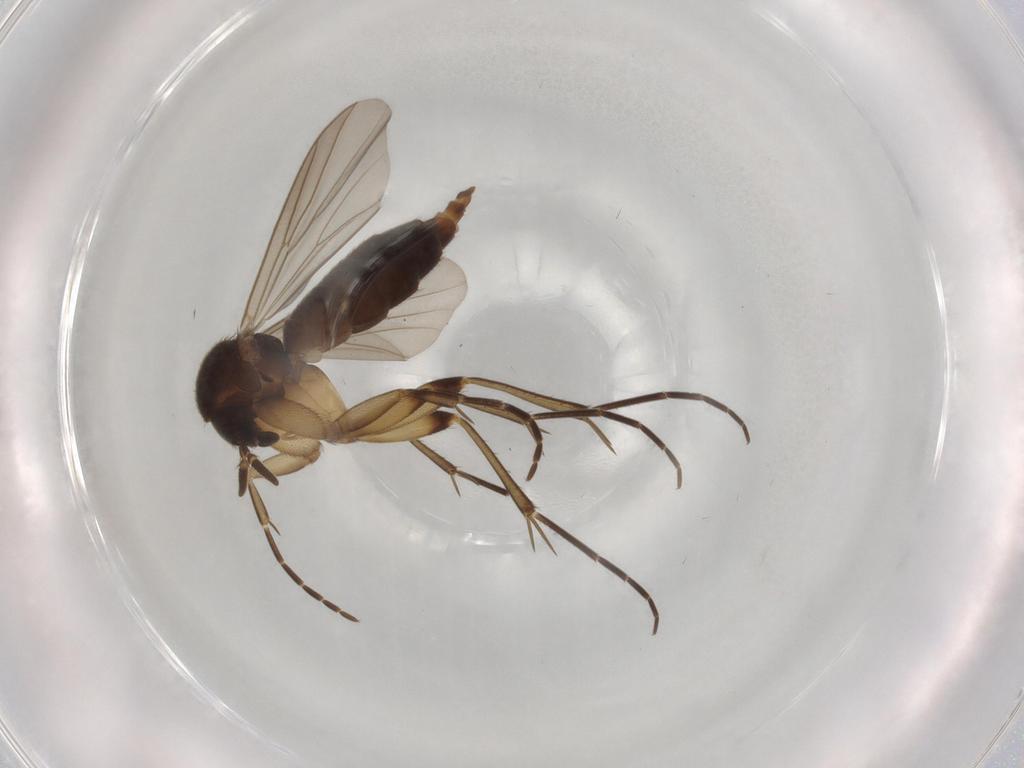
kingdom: Animalia
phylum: Arthropoda
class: Insecta
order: Diptera
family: Mycetophilidae
